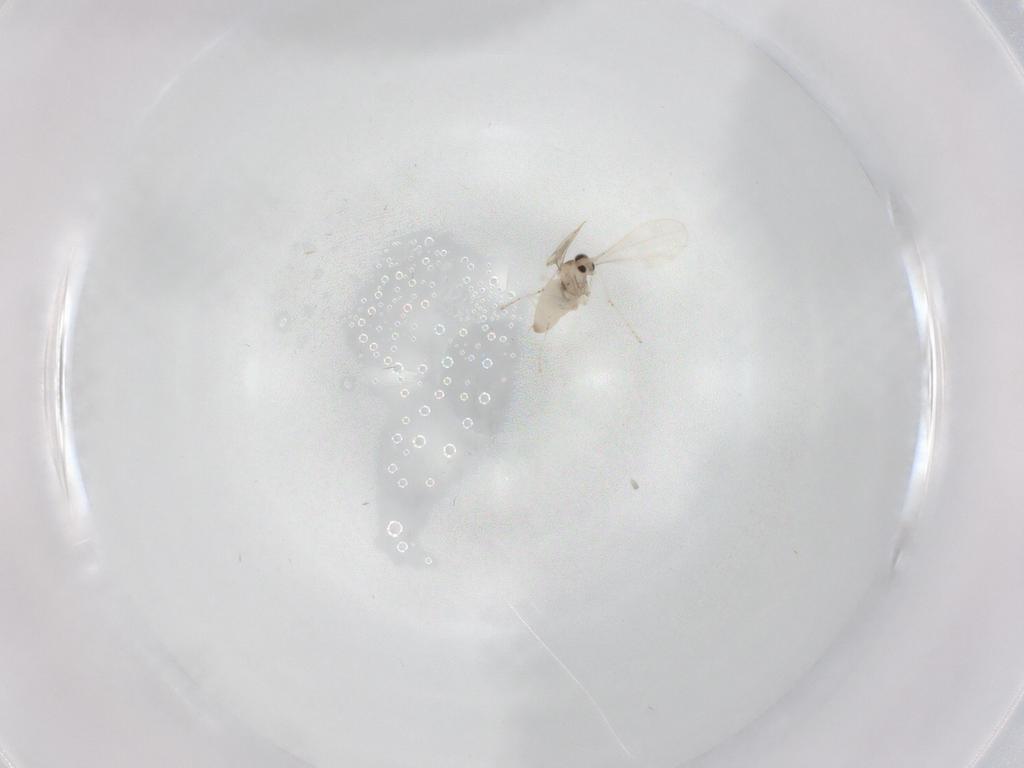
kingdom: Animalia
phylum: Arthropoda
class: Insecta
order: Diptera
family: Cecidomyiidae
